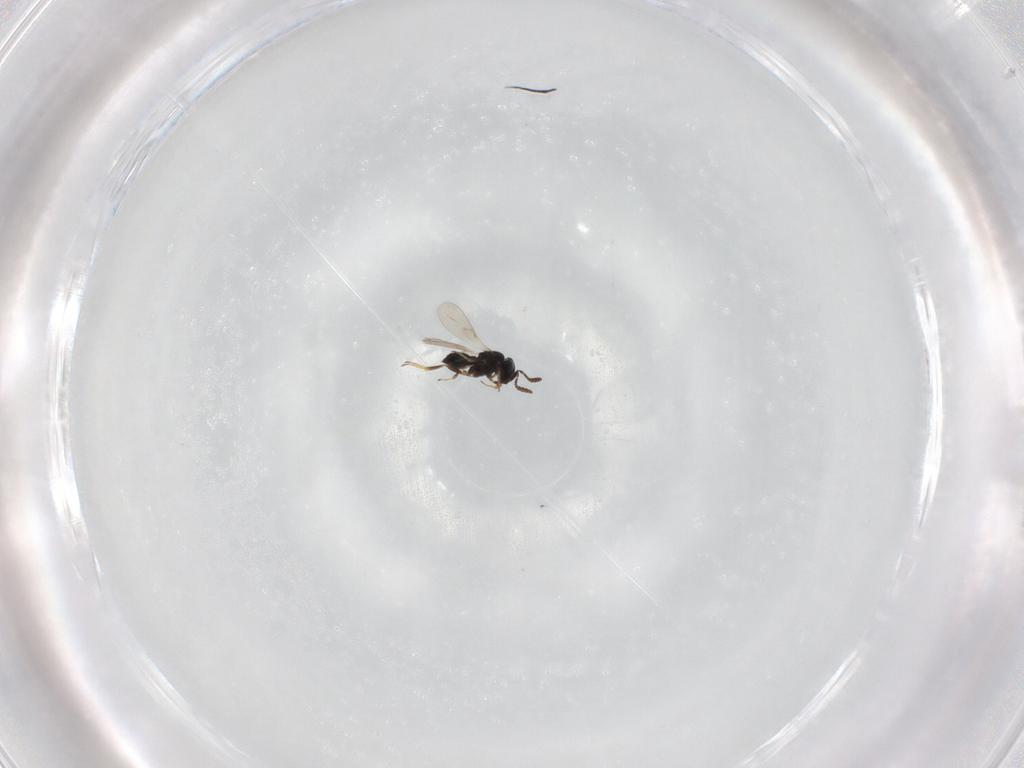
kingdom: Animalia
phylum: Arthropoda
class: Insecta
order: Hymenoptera
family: Scelionidae
